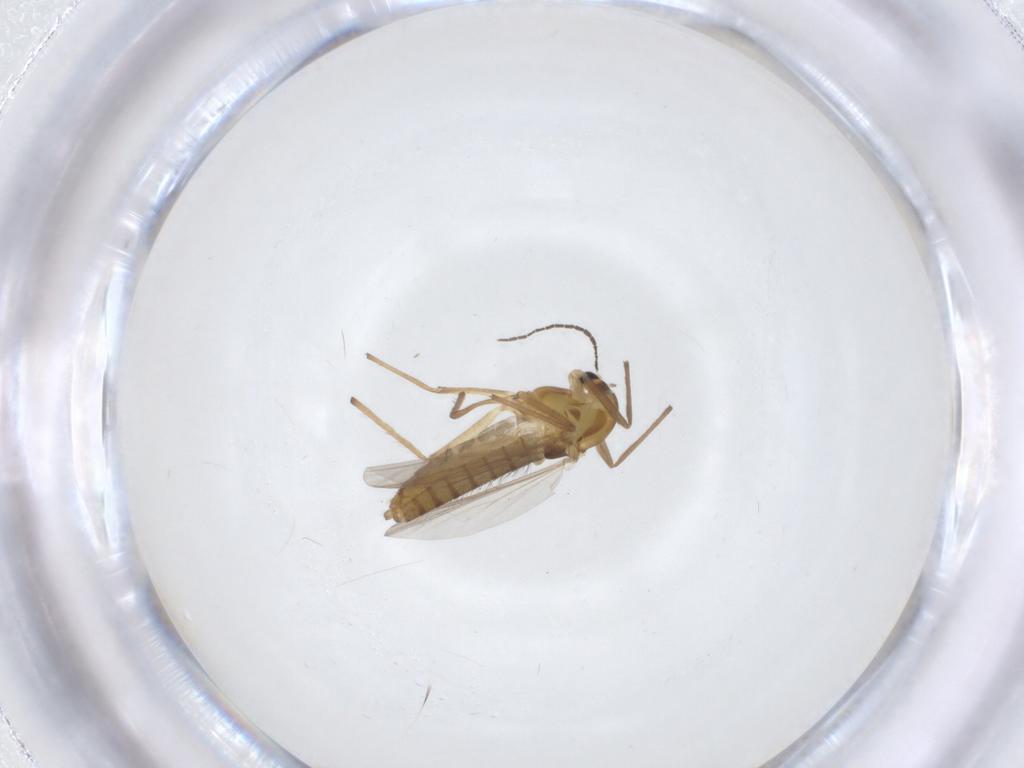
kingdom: Animalia
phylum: Arthropoda
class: Insecta
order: Diptera
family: Chironomidae
